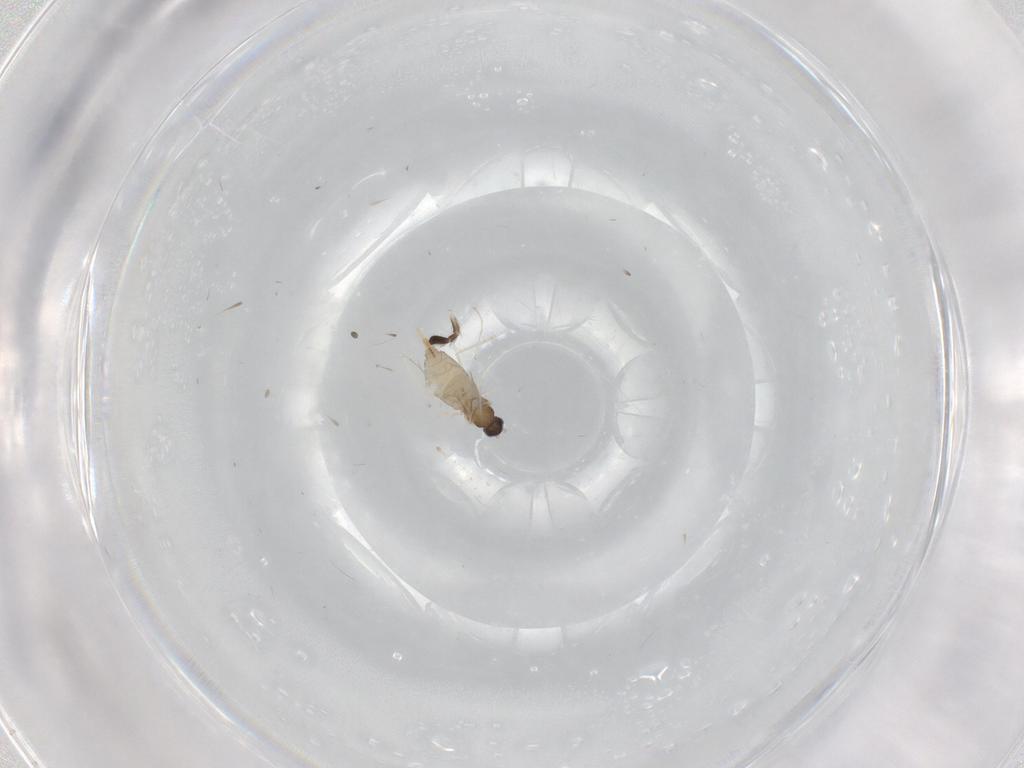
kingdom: Animalia
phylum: Arthropoda
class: Insecta
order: Diptera
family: Cecidomyiidae
